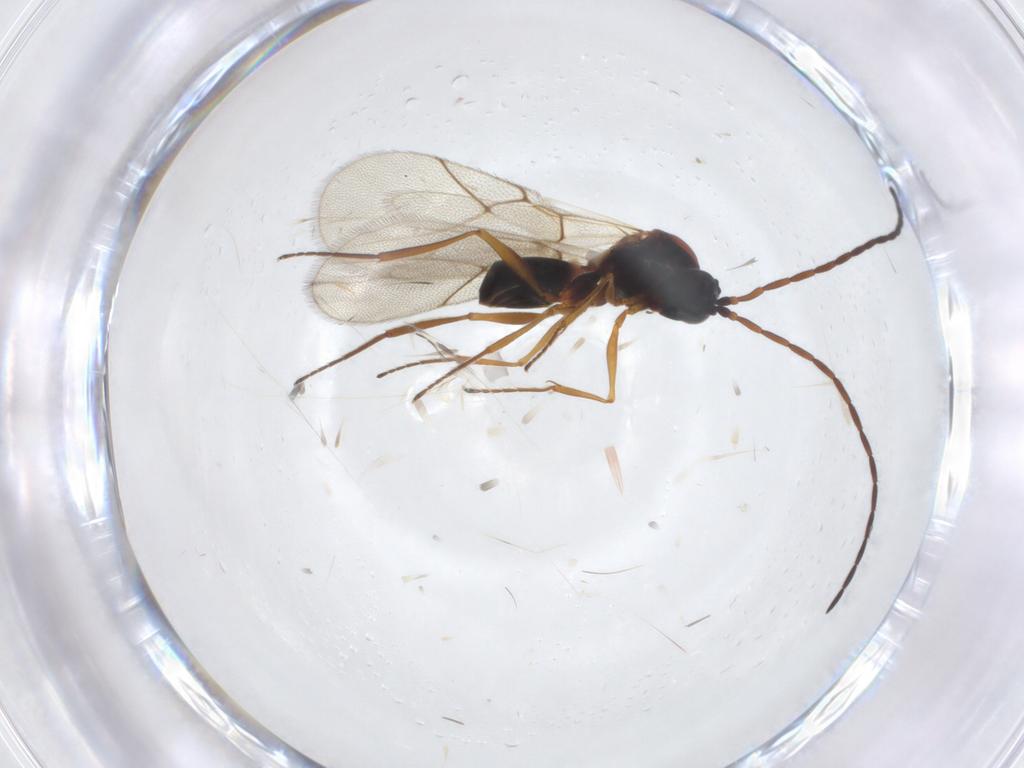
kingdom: Animalia
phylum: Arthropoda
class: Insecta
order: Hymenoptera
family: Figitidae
